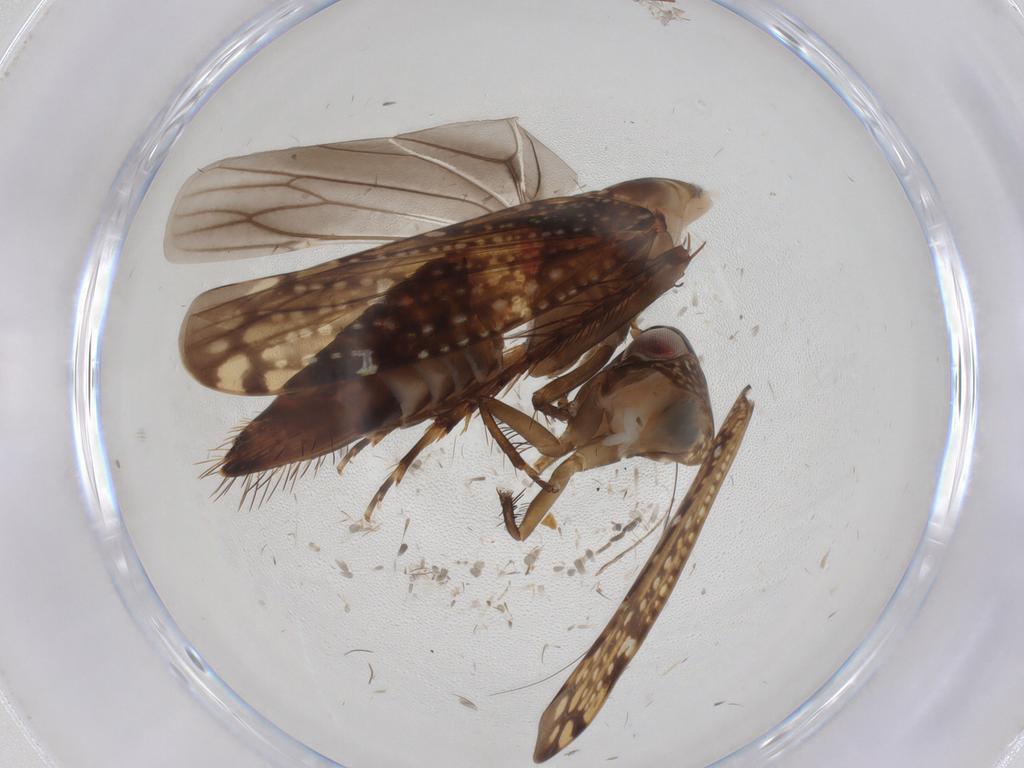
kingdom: Animalia
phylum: Arthropoda
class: Insecta
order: Hemiptera
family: Cicadellidae
